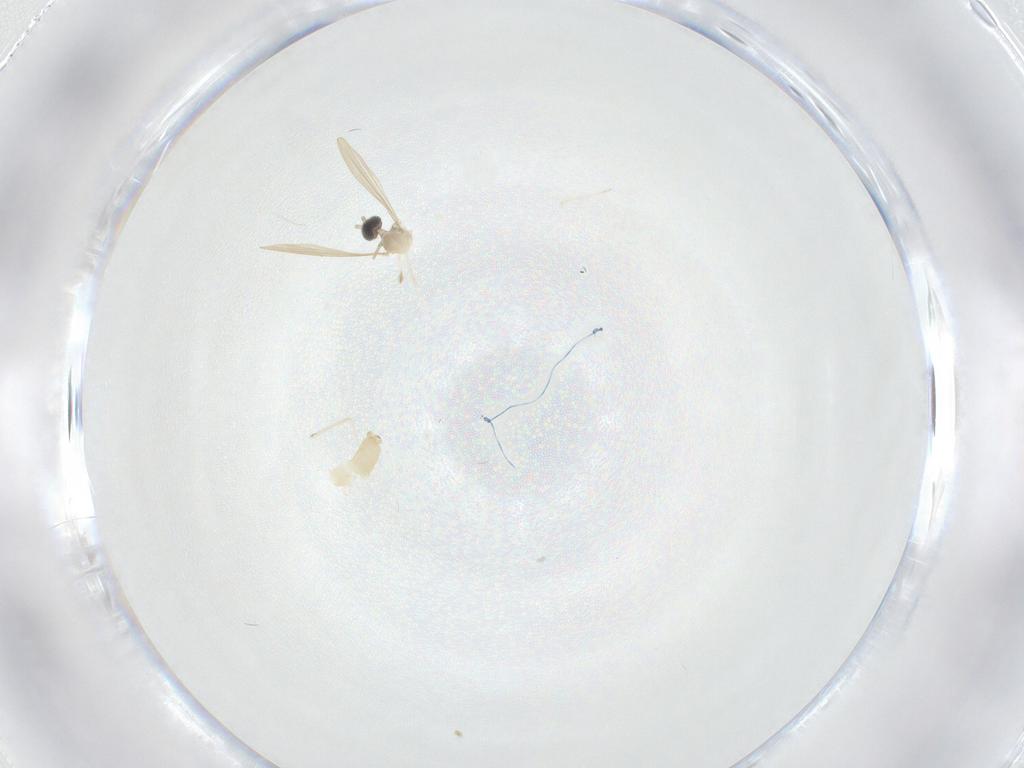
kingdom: Animalia
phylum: Arthropoda
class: Insecta
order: Diptera
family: Cecidomyiidae
